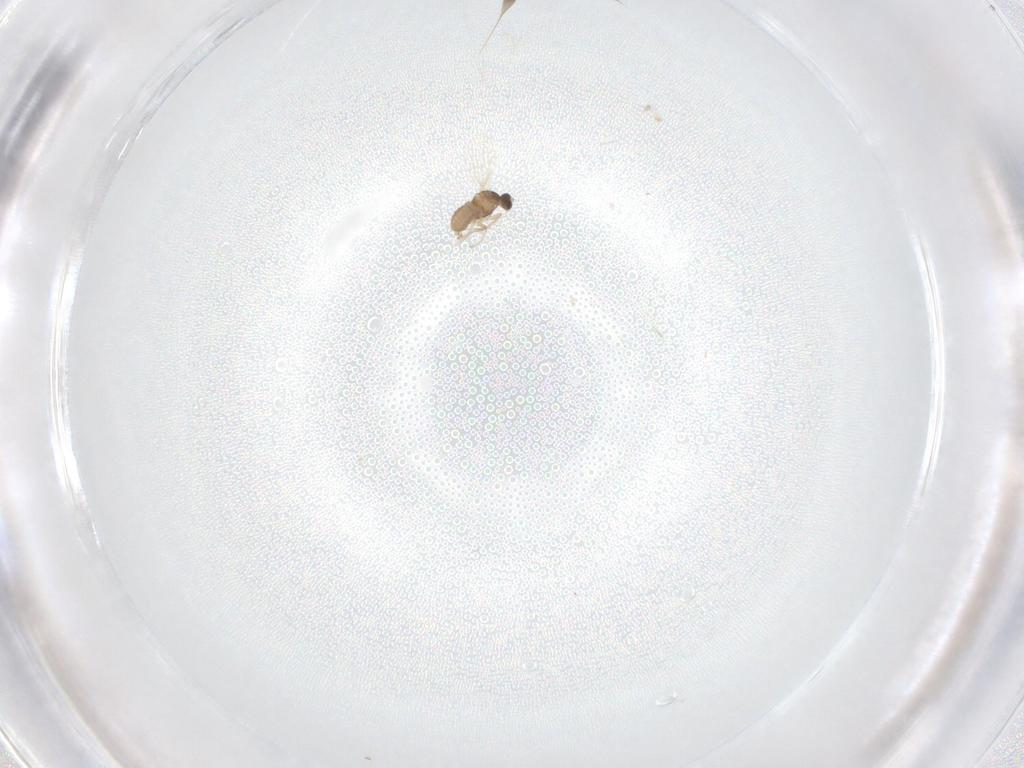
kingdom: Animalia
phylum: Arthropoda
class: Insecta
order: Diptera
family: Cecidomyiidae
